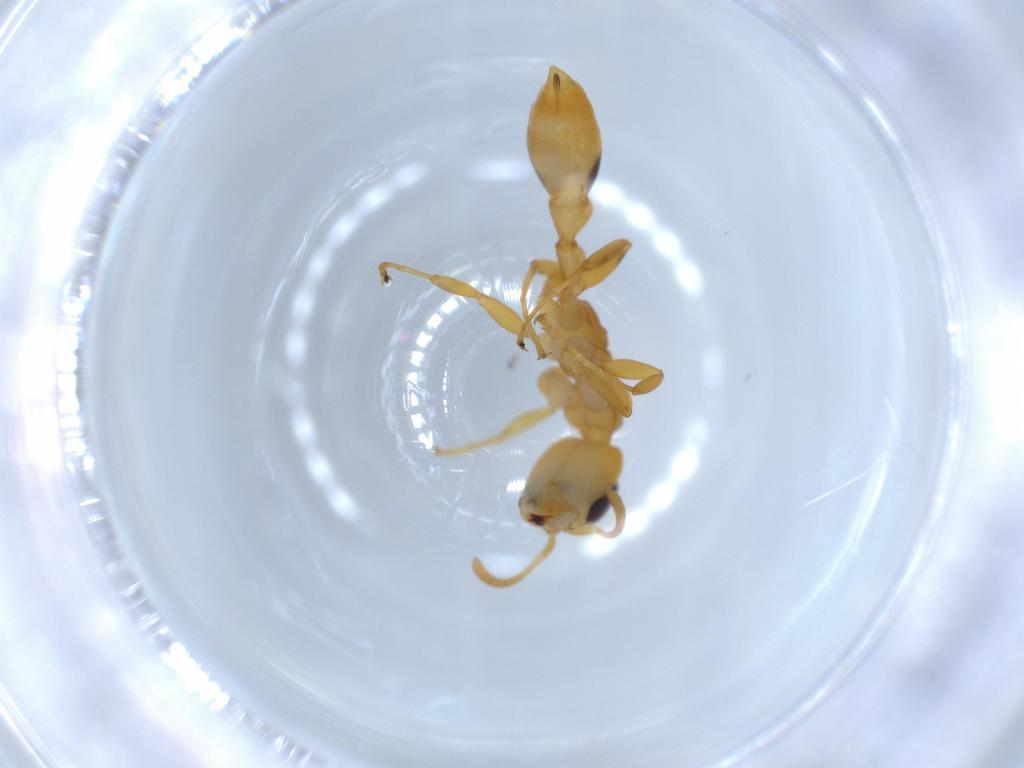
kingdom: Animalia
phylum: Arthropoda
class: Insecta
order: Hymenoptera
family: Formicidae
